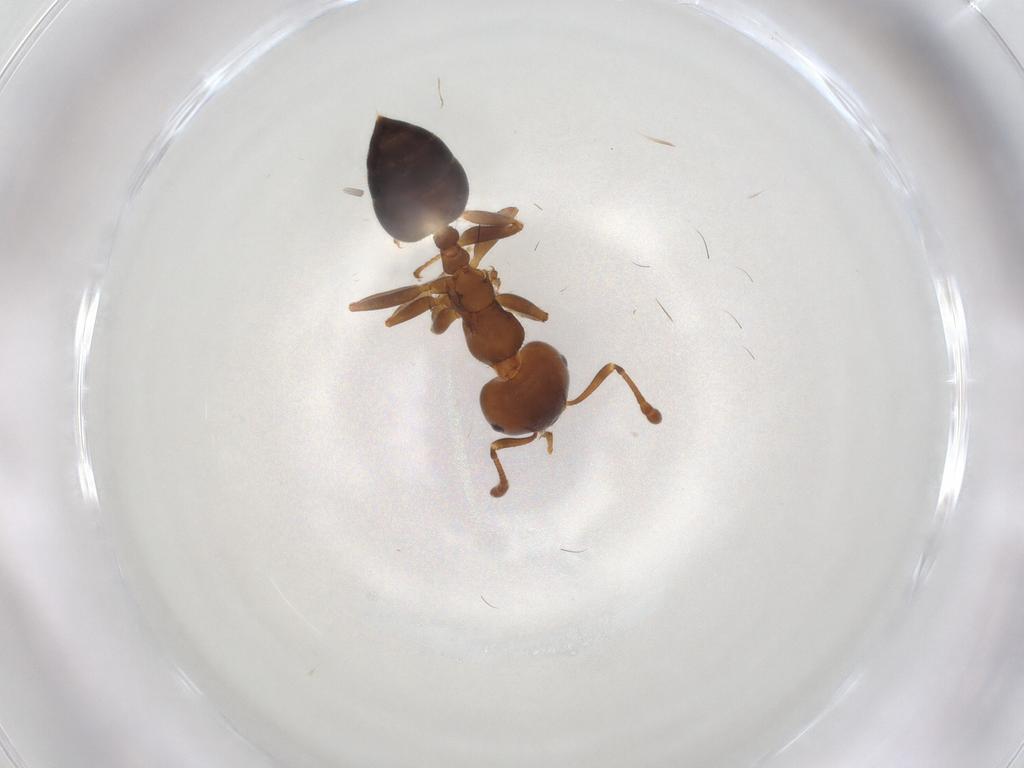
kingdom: Animalia
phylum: Arthropoda
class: Insecta
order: Hymenoptera
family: Formicidae
